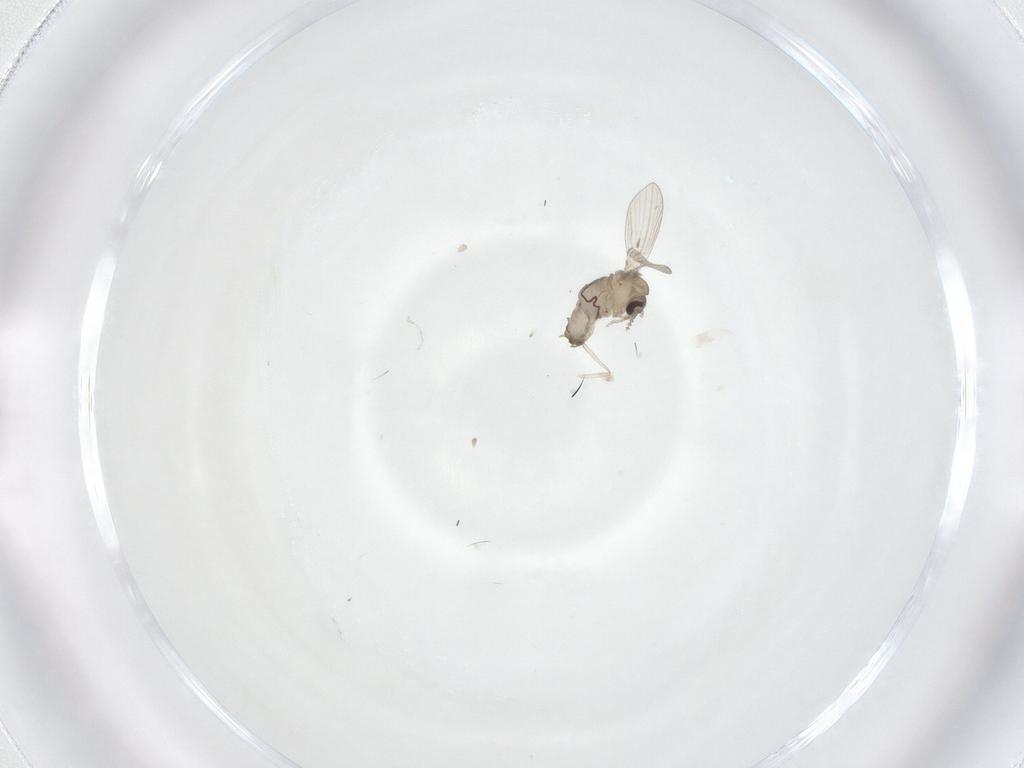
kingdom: Animalia
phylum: Arthropoda
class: Insecta
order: Diptera
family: Psychodidae
